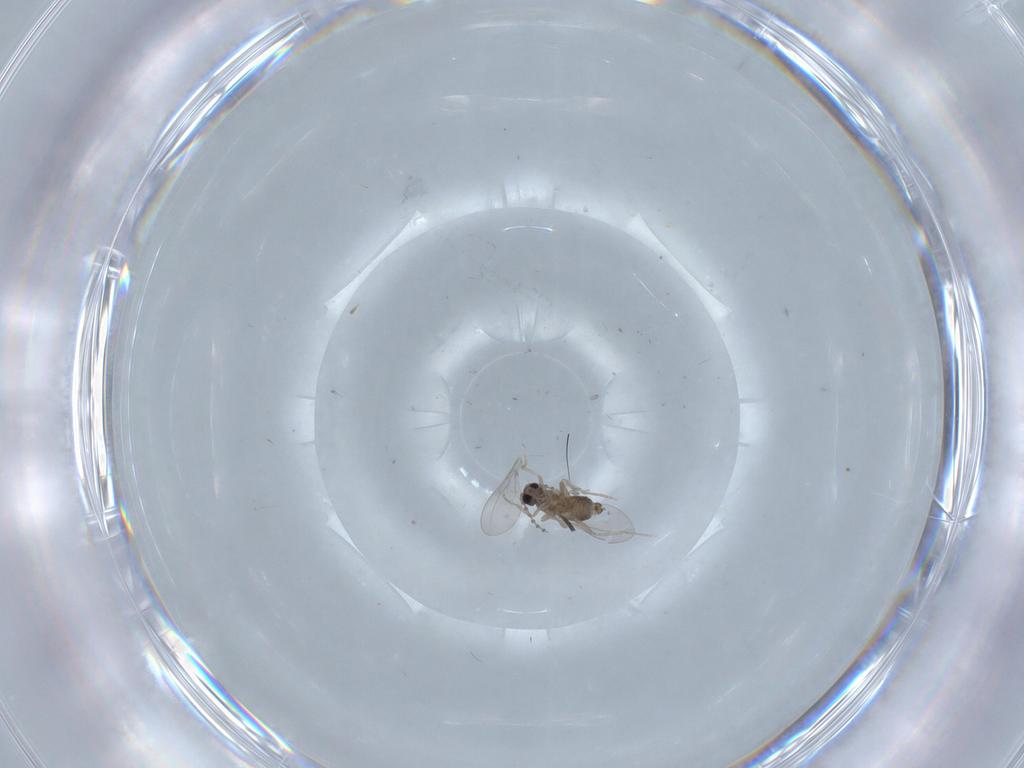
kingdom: Animalia
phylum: Arthropoda
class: Insecta
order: Diptera
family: Cecidomyiidae
